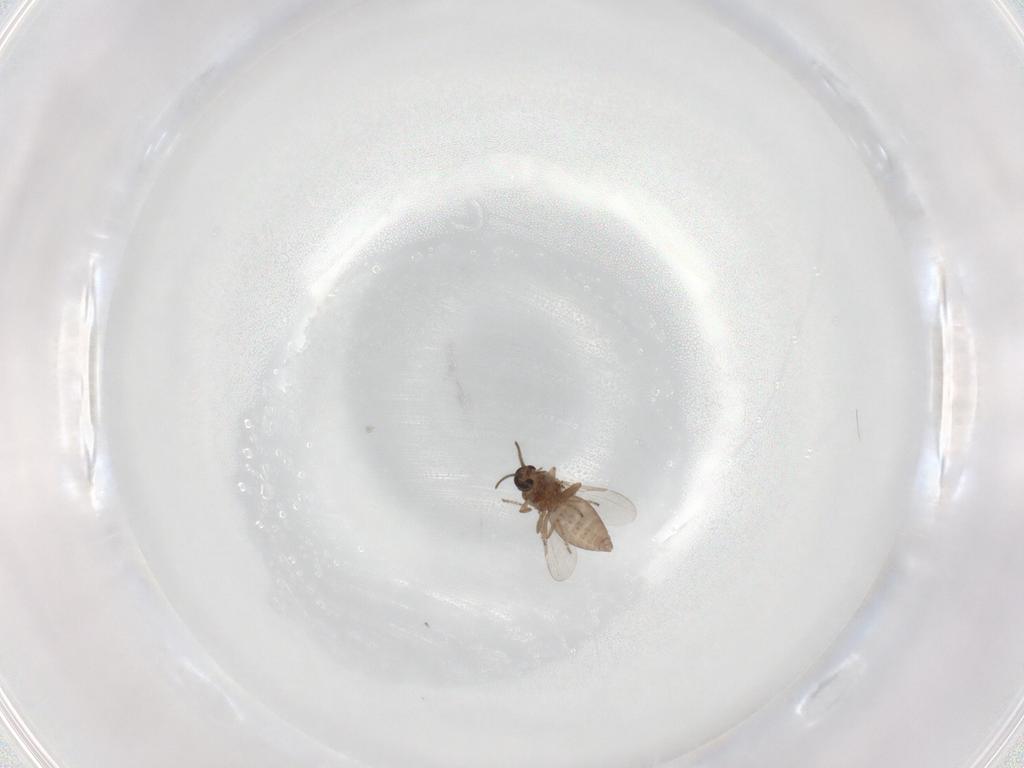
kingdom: Animalia
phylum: Arthropoda
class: Insecta
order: Diptera
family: Ceratopogonidae
